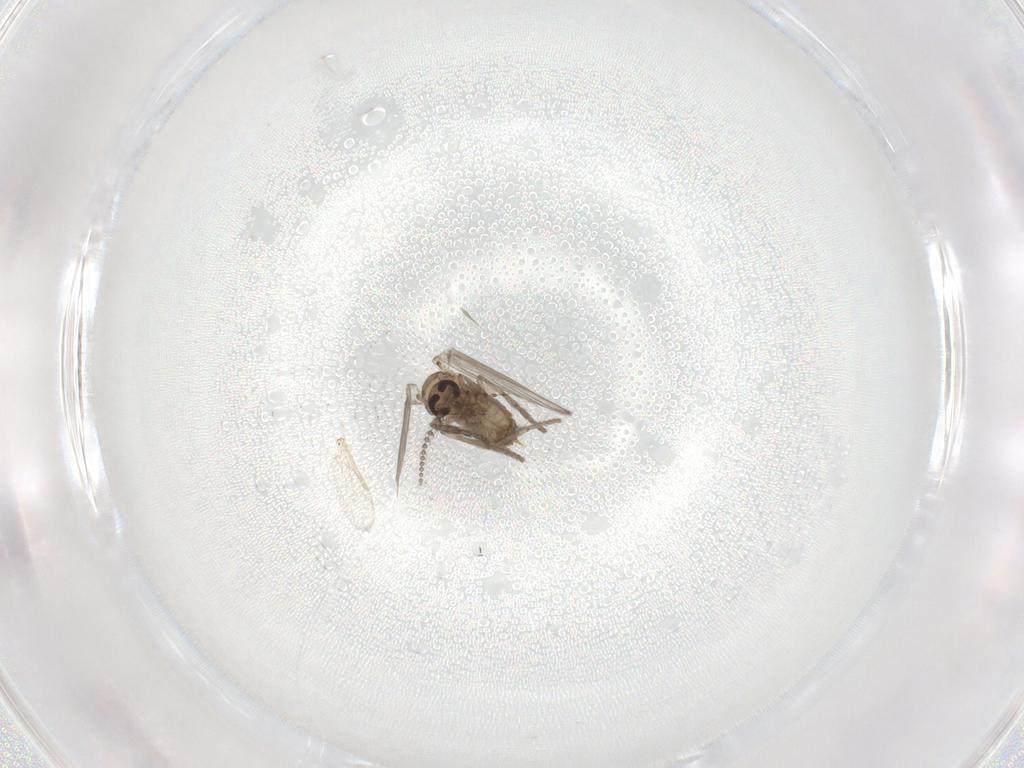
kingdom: Animalia
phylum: Arthropoda
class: Insecta
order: Diptera
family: Psychodidae
